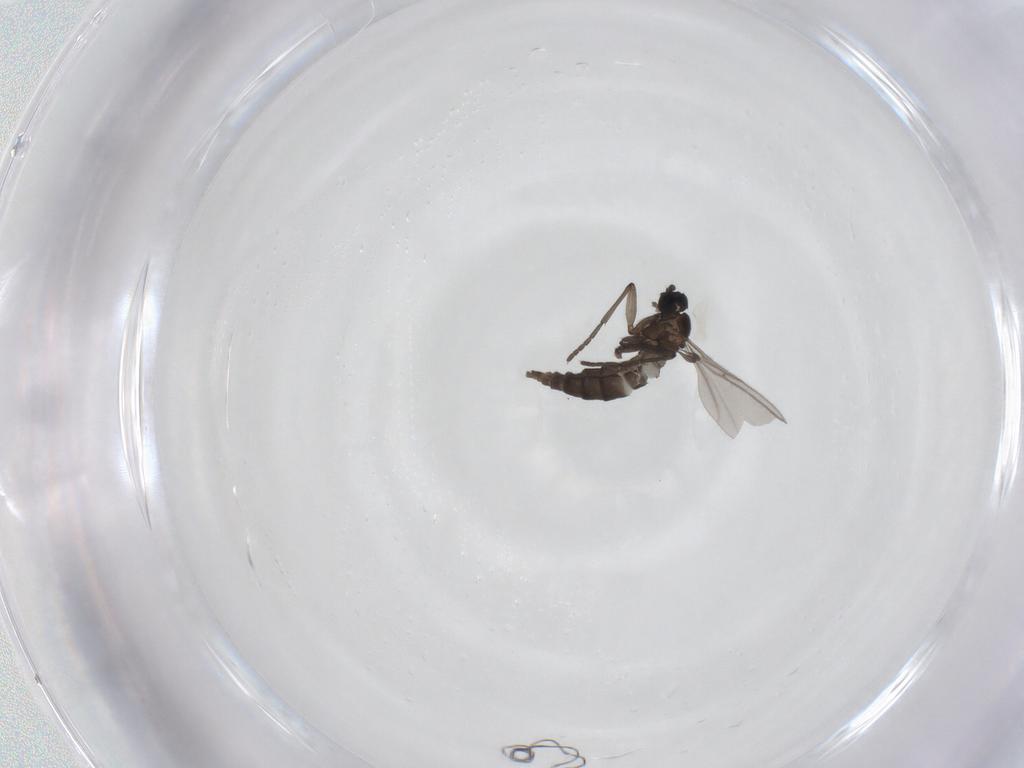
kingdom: Animalia
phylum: Arthropoda
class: Insecta
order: Diptera
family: Sciaridae
